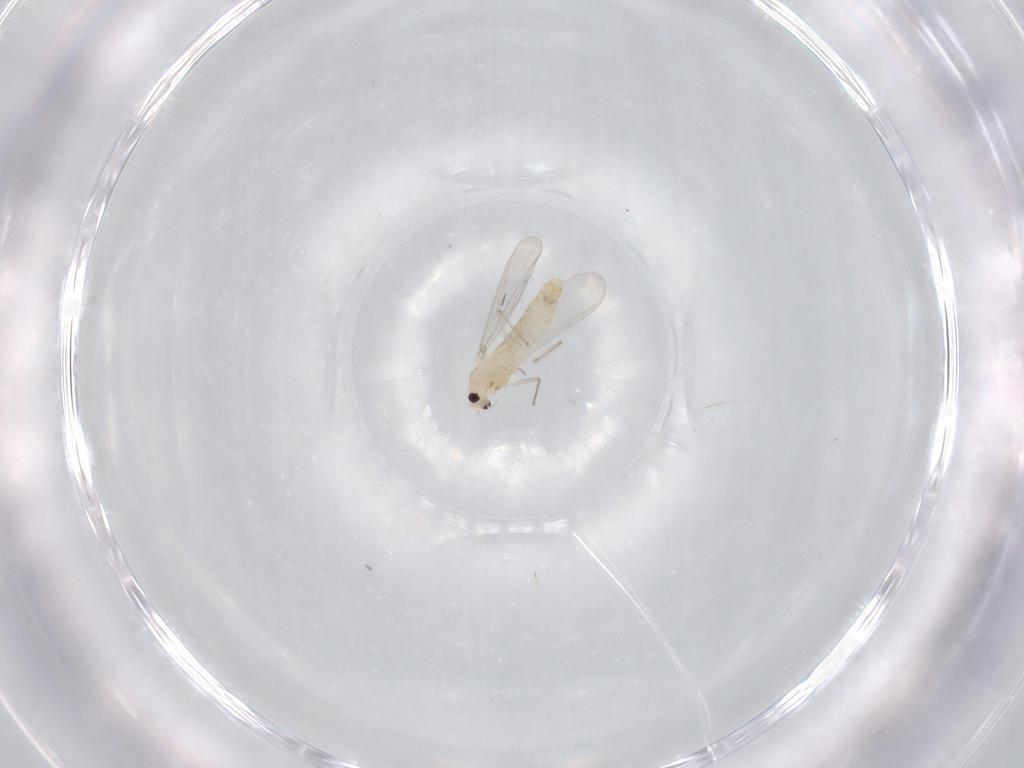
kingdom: Animalia
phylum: Arthropoda
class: Insecta
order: Diptera
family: Chironomidae
